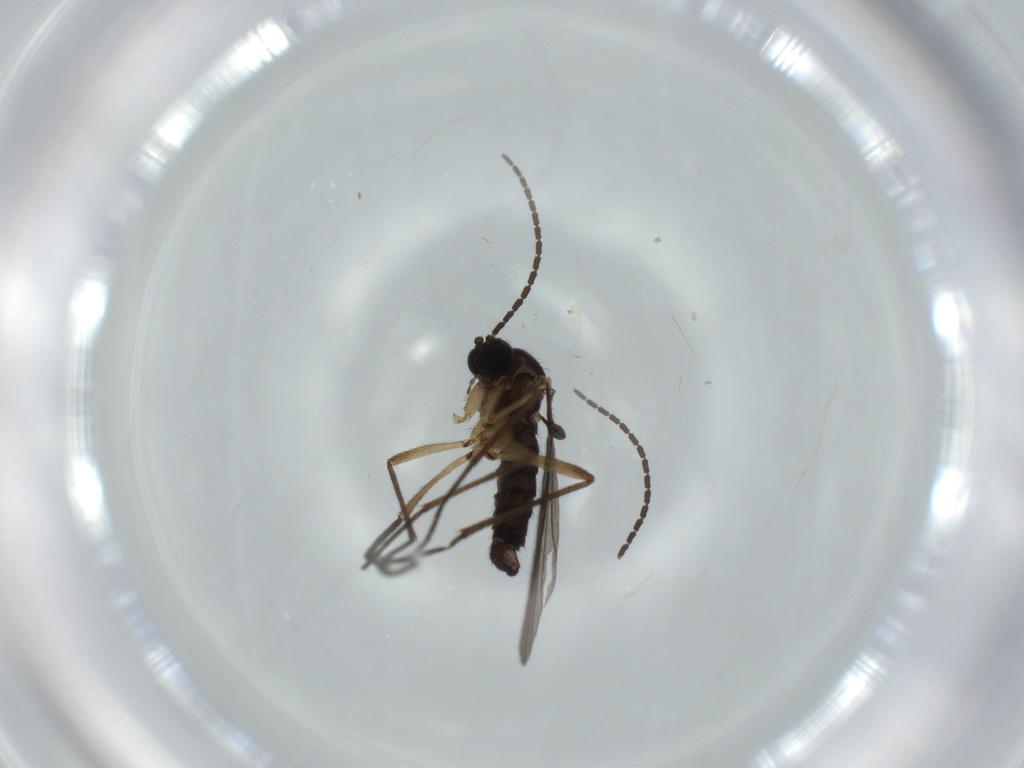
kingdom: Animalia
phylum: Arthropoda
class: Insecta
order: Diptera
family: Sciaridae
